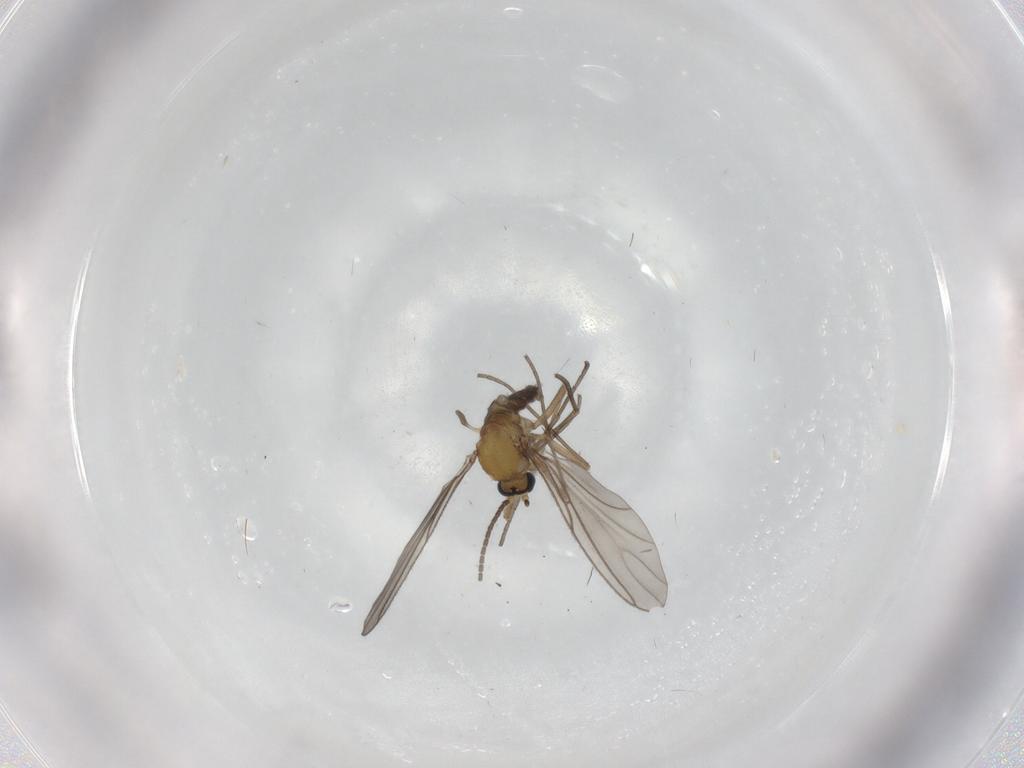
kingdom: Animalia
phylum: Arthropoda
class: Insecta
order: Diptera
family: Sciaridae
